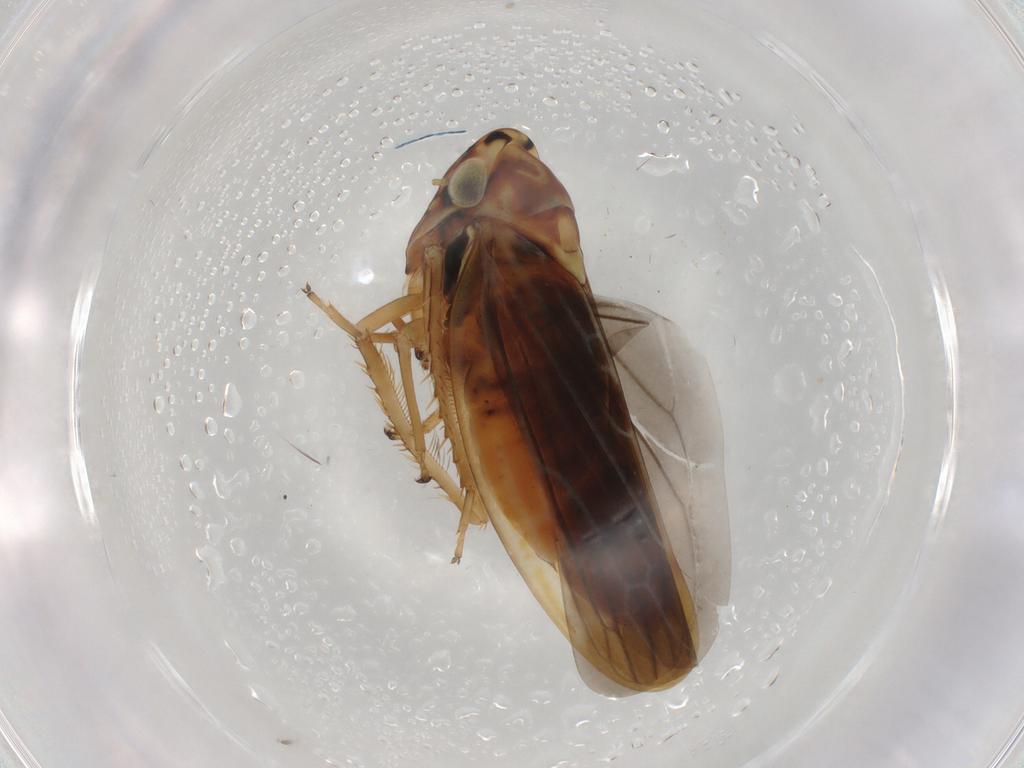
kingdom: Animalia
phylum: Arthropoda
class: Insecta
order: Hemiptera
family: Cicadellidae
